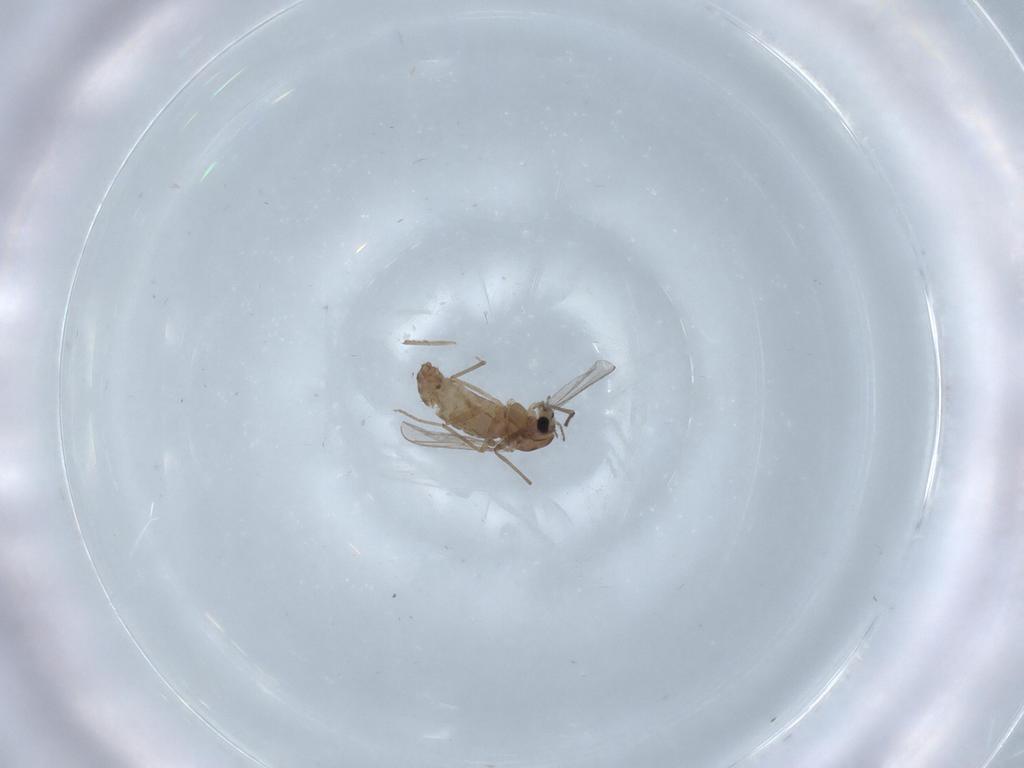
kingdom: Animalia
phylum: Arthropoda
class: Insecta
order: Diptera
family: Chironomidae
